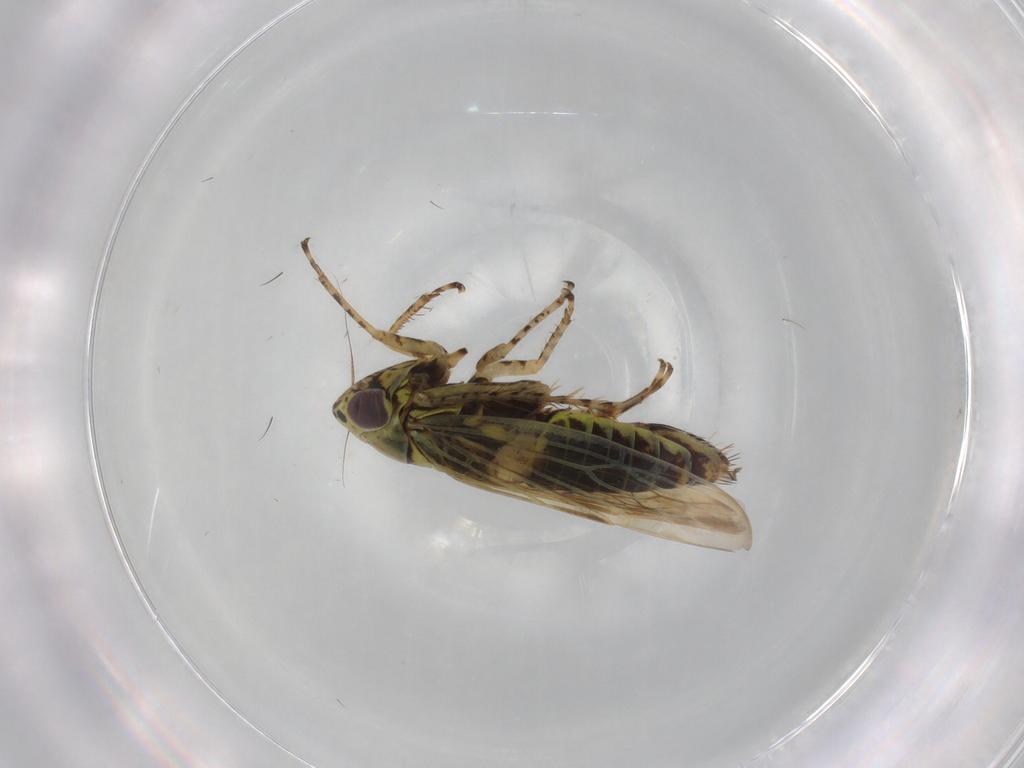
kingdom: Animalia
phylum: Arthropoda
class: Insecta
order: Hemiptera
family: Cicadellidae
